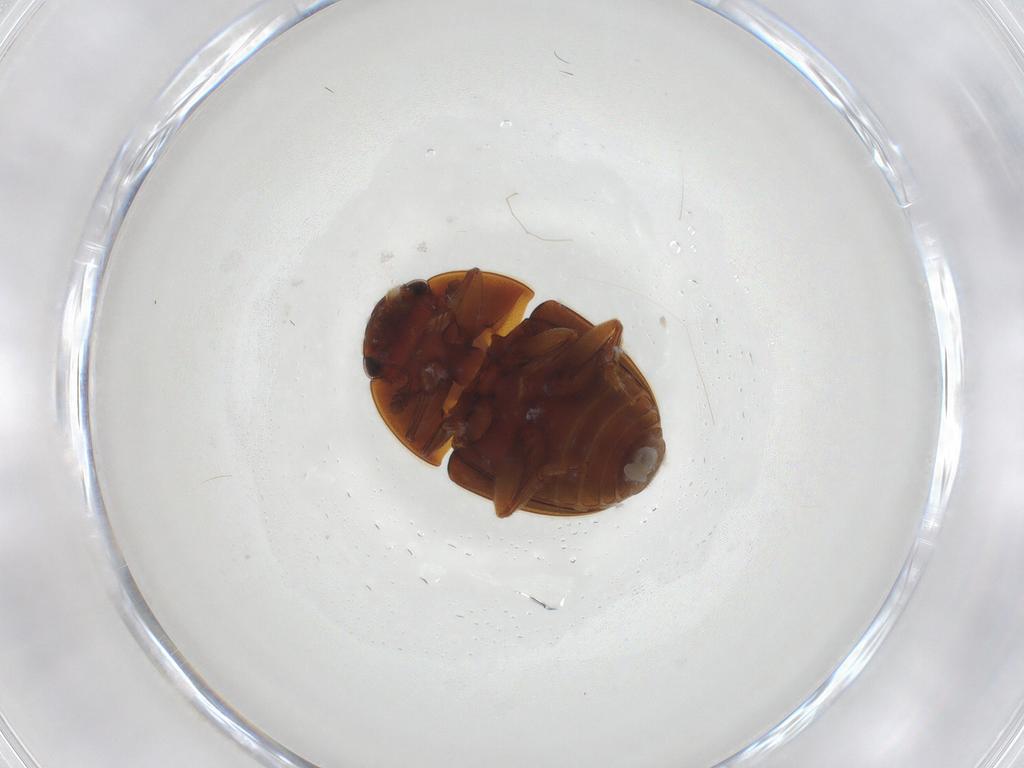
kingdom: Animalia
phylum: Arthropoda
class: Insecta
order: Coleoptera
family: Nitidulidae
